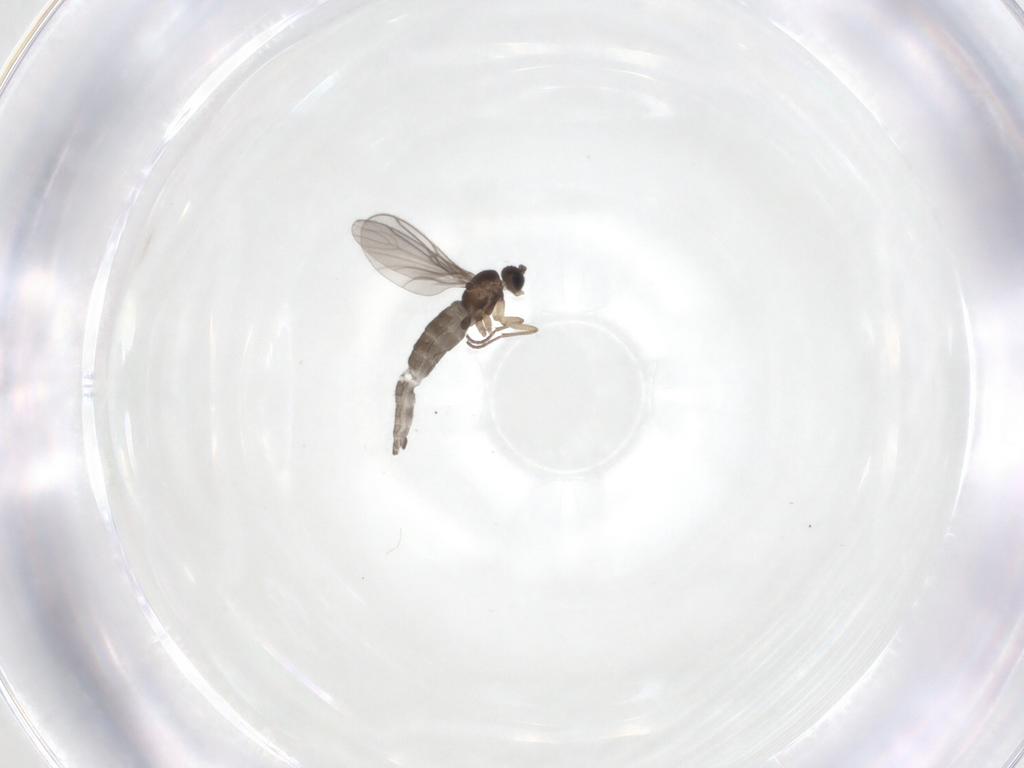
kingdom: Animalia
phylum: Arthropoda
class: Insecta
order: Diptera
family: Sciaridae
